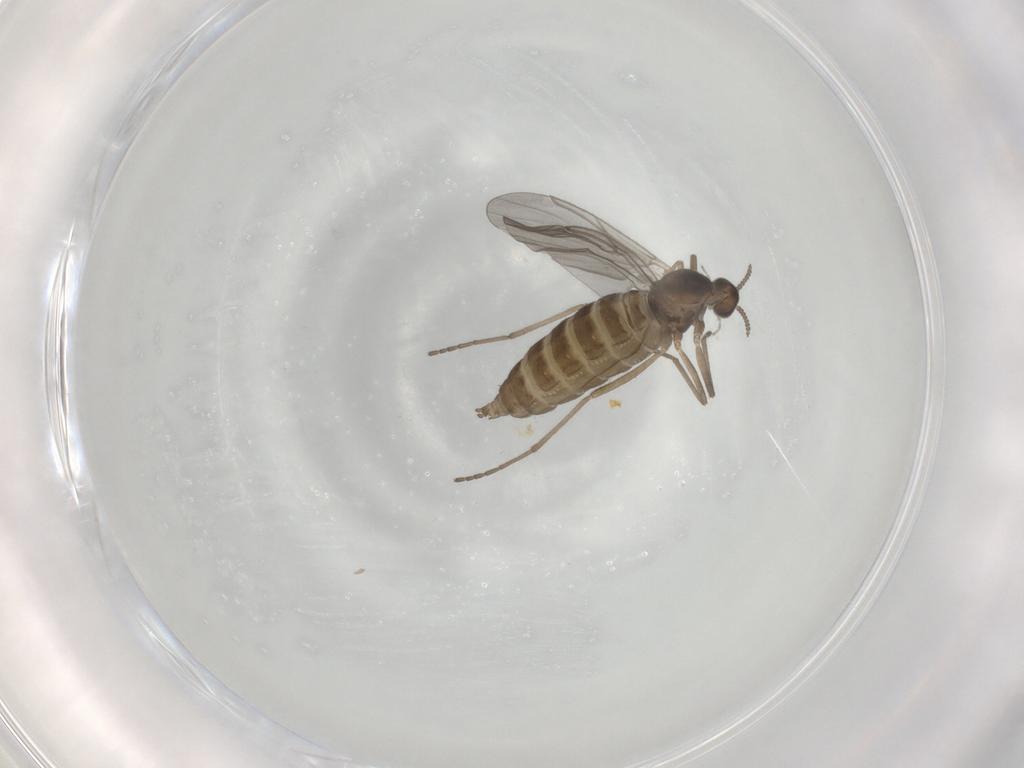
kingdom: Animalia
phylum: Arthropoda
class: Insecta
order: Diptera
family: Cecidomyiidae
